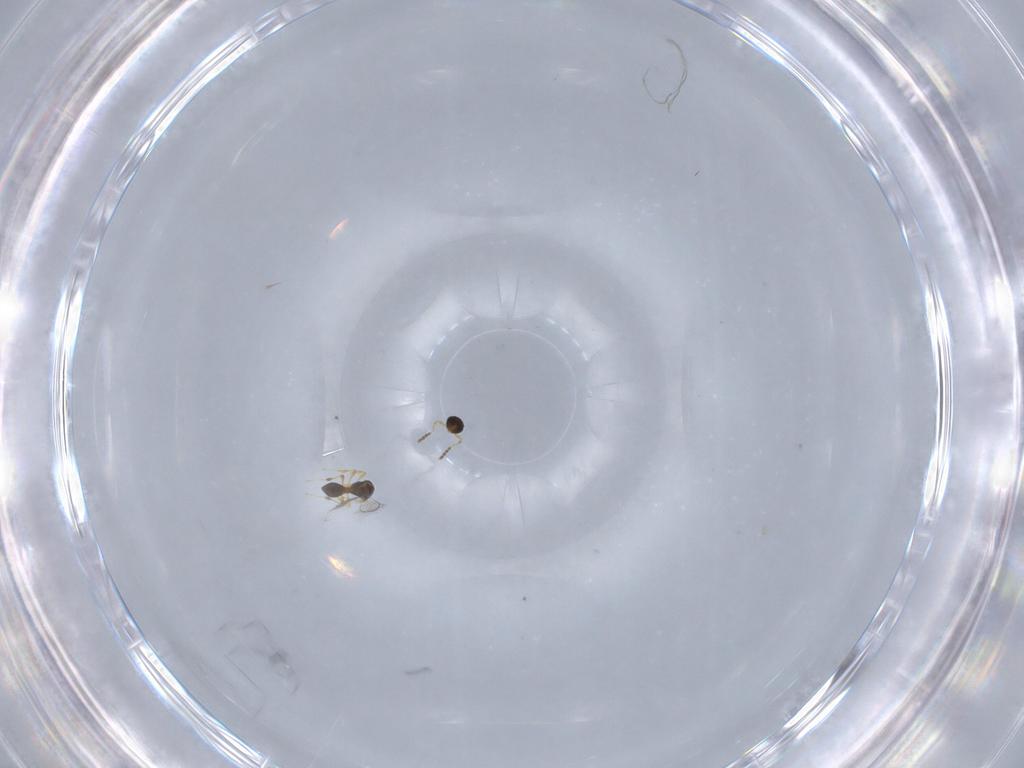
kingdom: Animalia
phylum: Arthropoda
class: Insecta
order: Hymenoptera
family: Platygastridae
